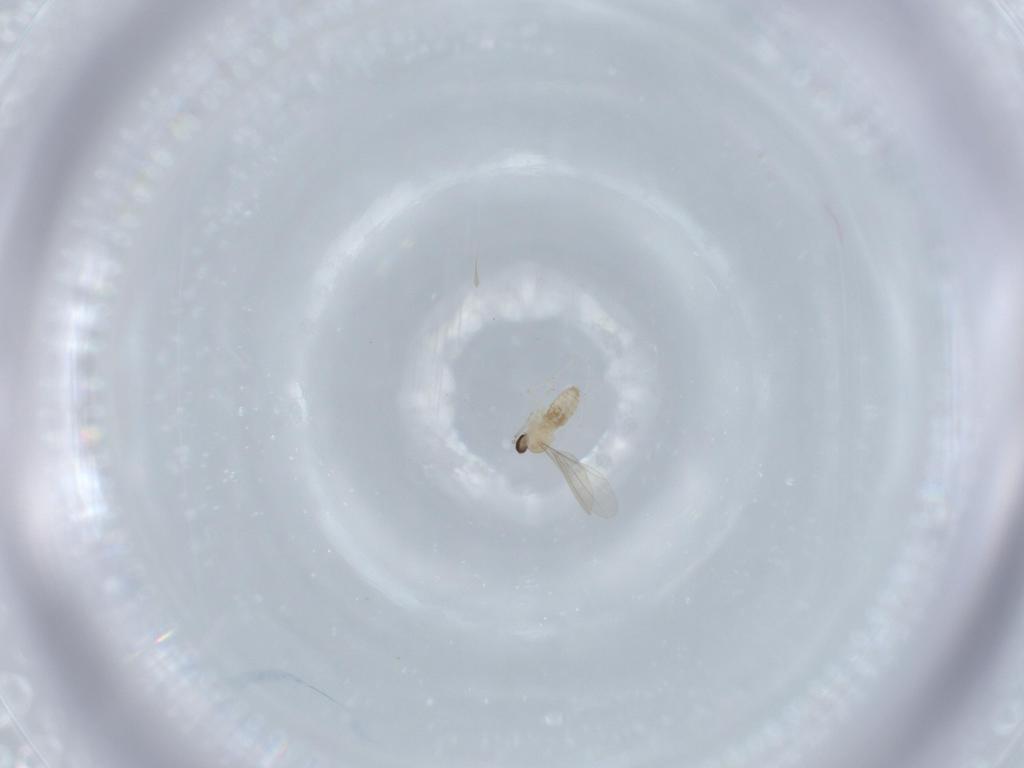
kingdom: Animalia
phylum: Arthropoda
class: Insecta
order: Diptera
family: Cecidomyiidae
